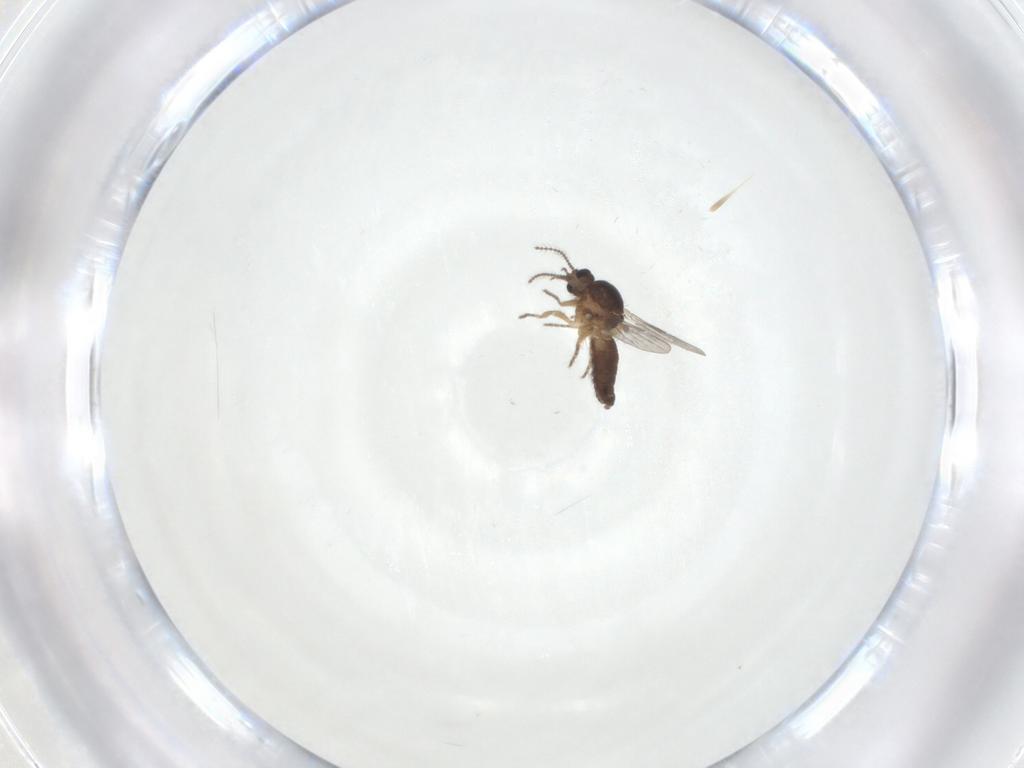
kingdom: Animalia
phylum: Arthropoda
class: Insecta
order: Diptera
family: Ceratopogonidae
